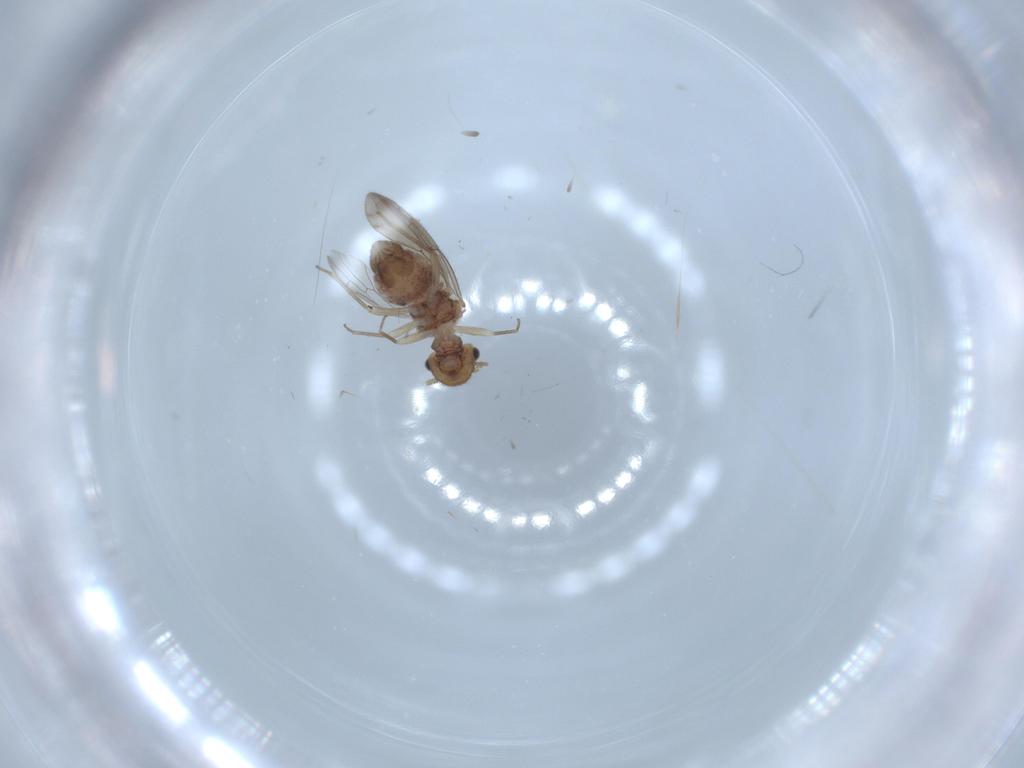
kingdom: Animalia
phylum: Arthropoda
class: Insecta
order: Psocodea
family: Ectopsocidae
